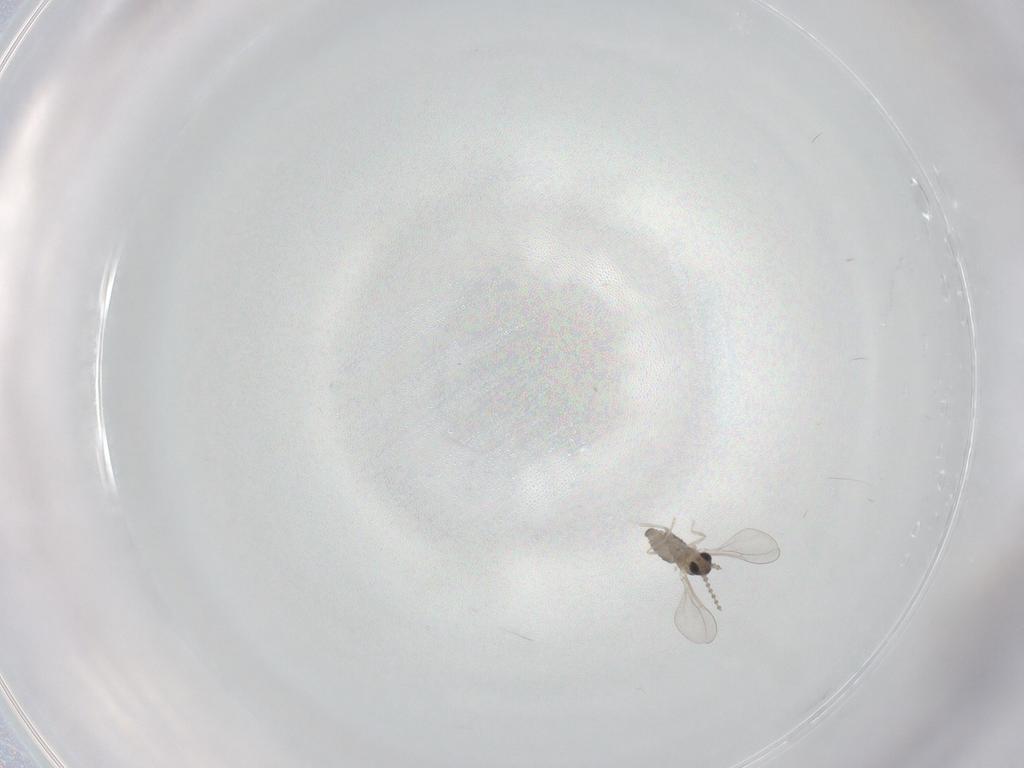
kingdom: Animalia
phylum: Arthropoda
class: Insecta
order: Diptera
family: Cecidomyiidae
